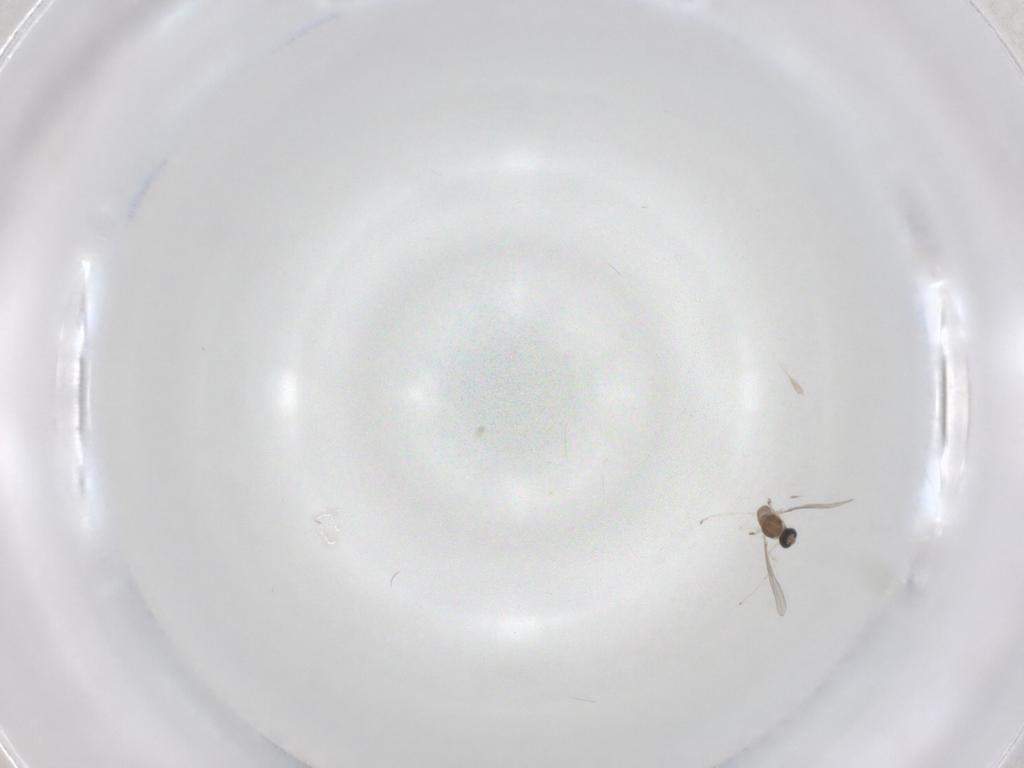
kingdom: Animalia
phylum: Arthropoda
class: Insecta
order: Diptera
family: Cecidomyiidae
